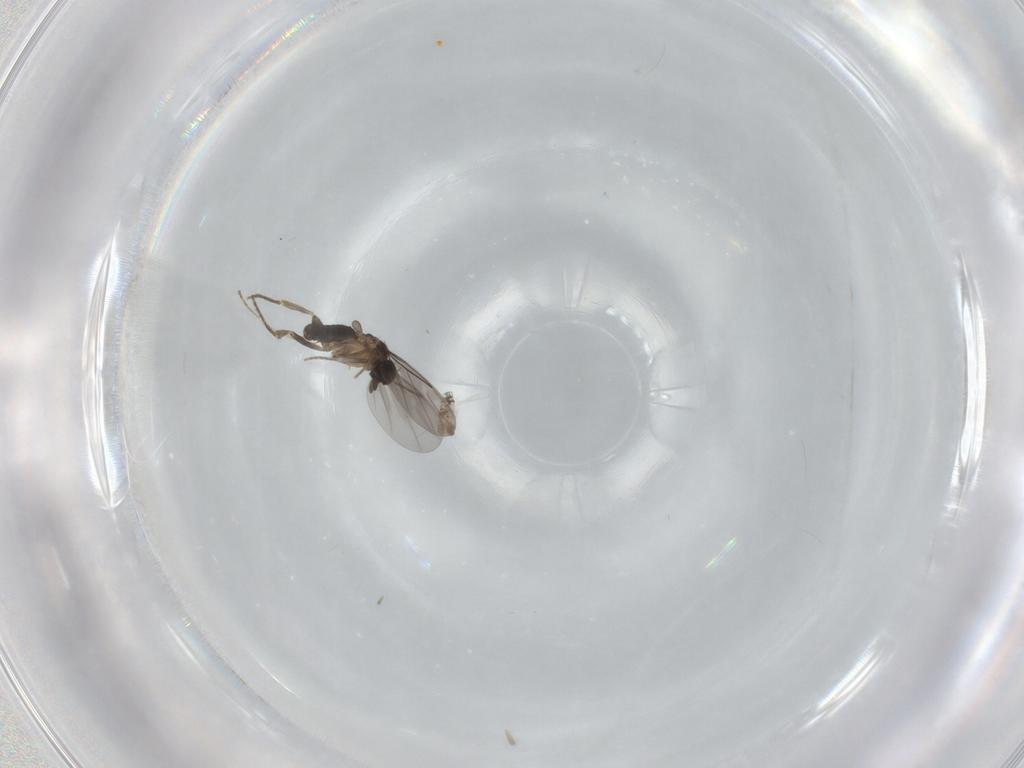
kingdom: Animalia
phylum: Arthropoda
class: Insecta
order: Diptera
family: Cecidomyiidae
